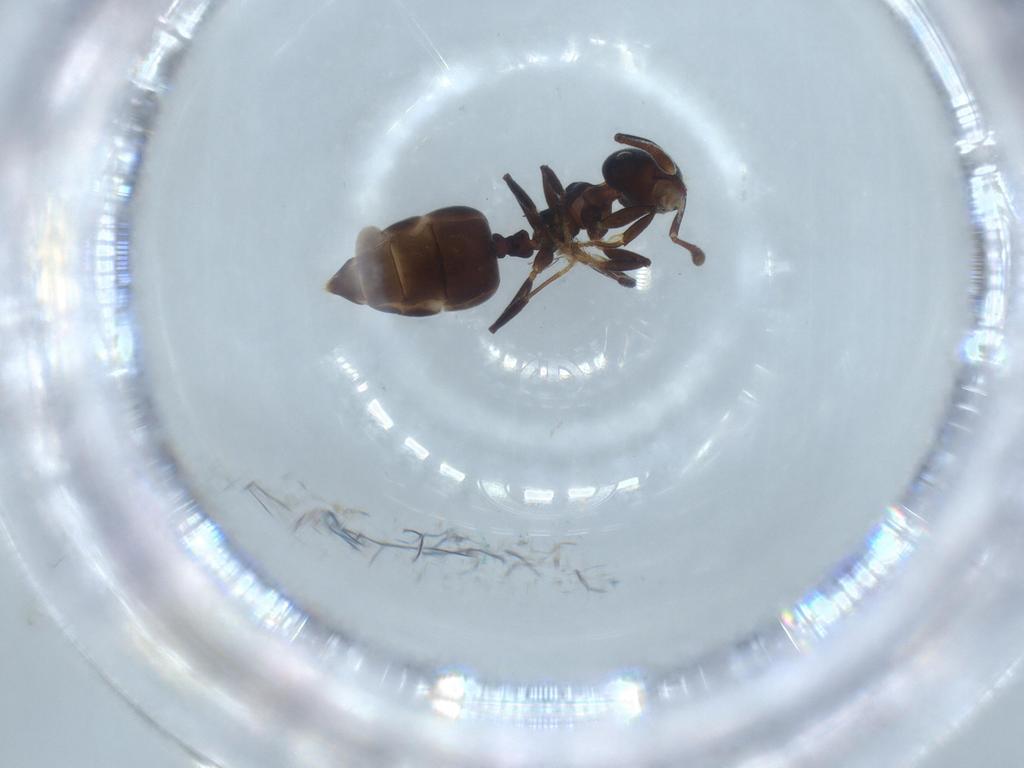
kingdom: Animalia
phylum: Arthropoda
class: Insecta
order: Hymenoptera
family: Formicidae
